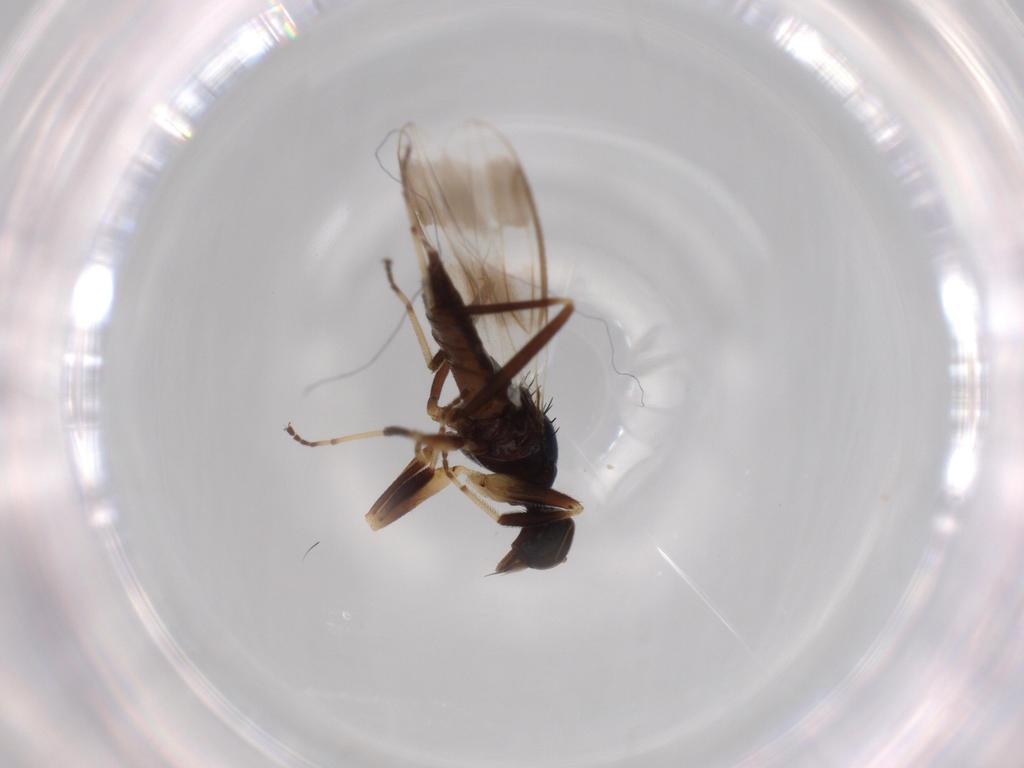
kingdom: Animalia
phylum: Arthropoda
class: Insecta
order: Diptera
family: Hybotidae
